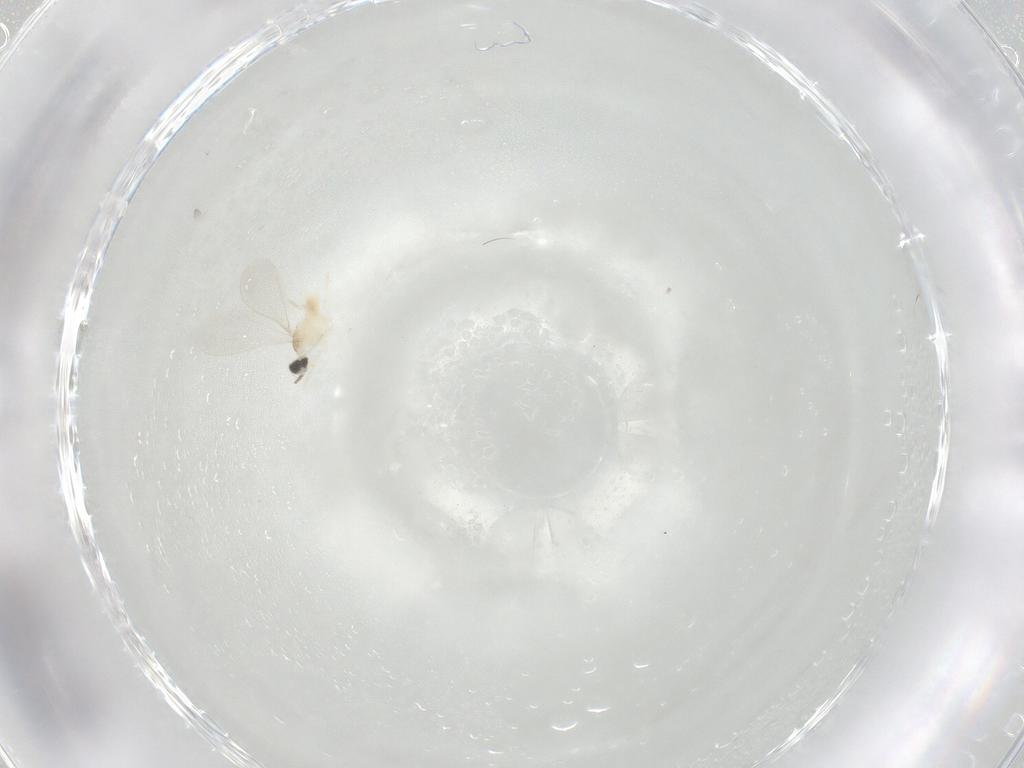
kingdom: Animalia
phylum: Arthropoda
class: Insecta
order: Diptera
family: Cecidomyiidae
